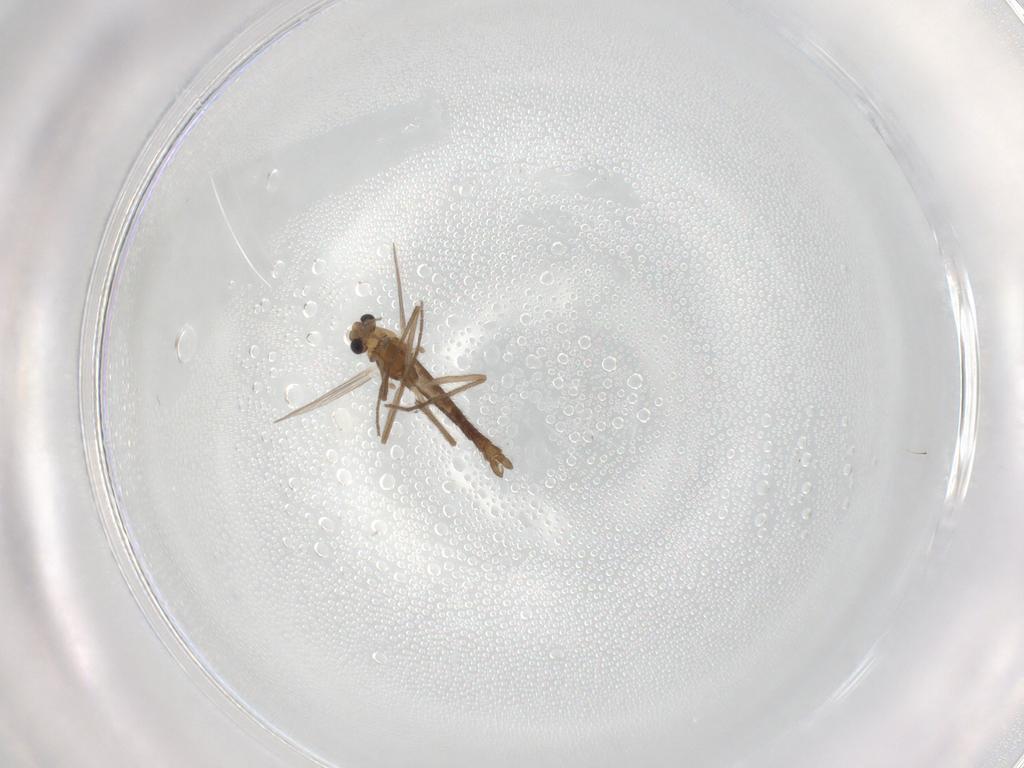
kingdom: Animalia
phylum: Arthropoda
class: Insecta
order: Diptera
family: Chironomidae
